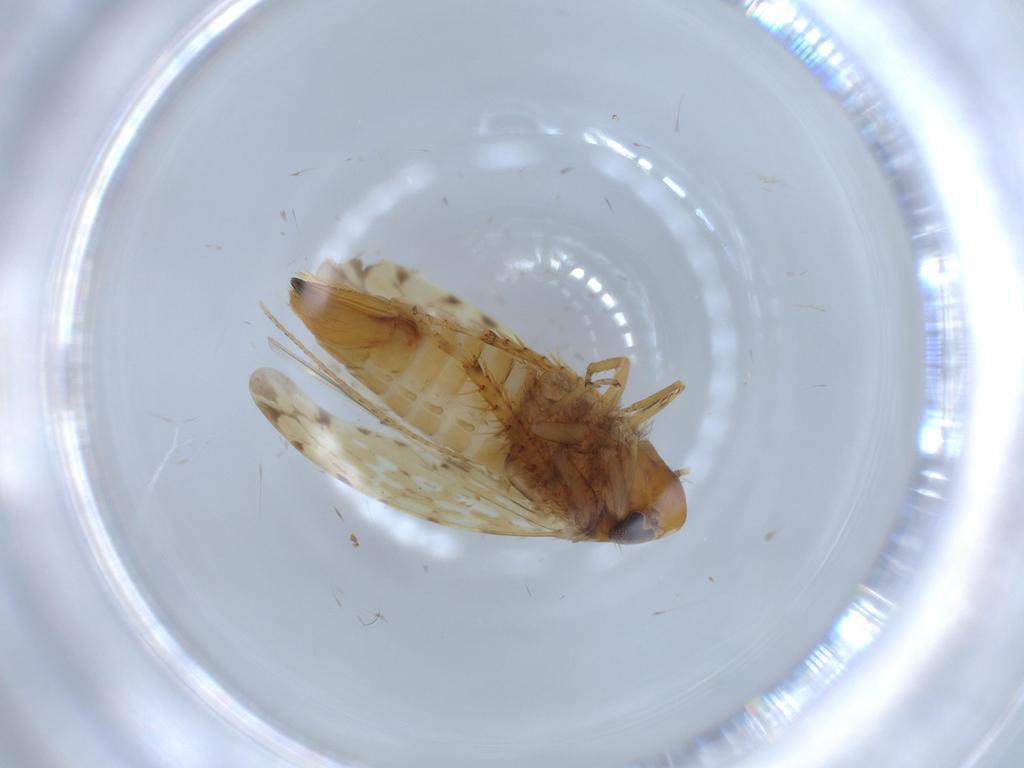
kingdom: Animalia
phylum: Arthropoda
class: Insecta
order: Hemiptera
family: Cicadellidae
